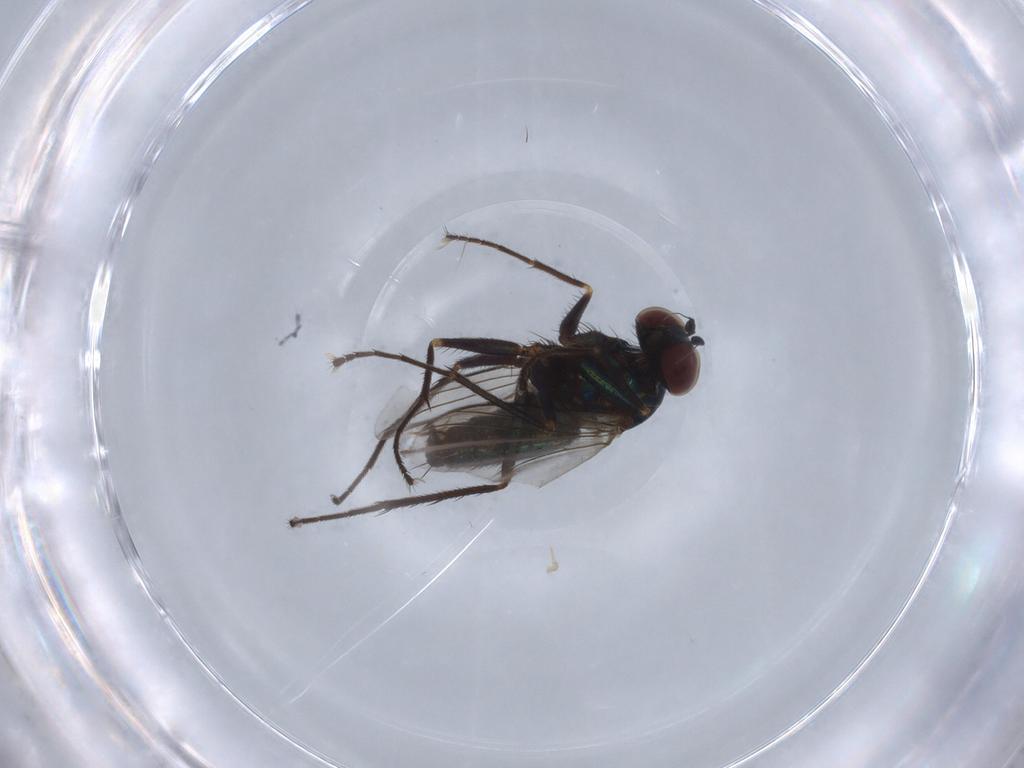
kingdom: Animalia
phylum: Arthropoda
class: Insecta
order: Diptera
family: Dolichopodidae
